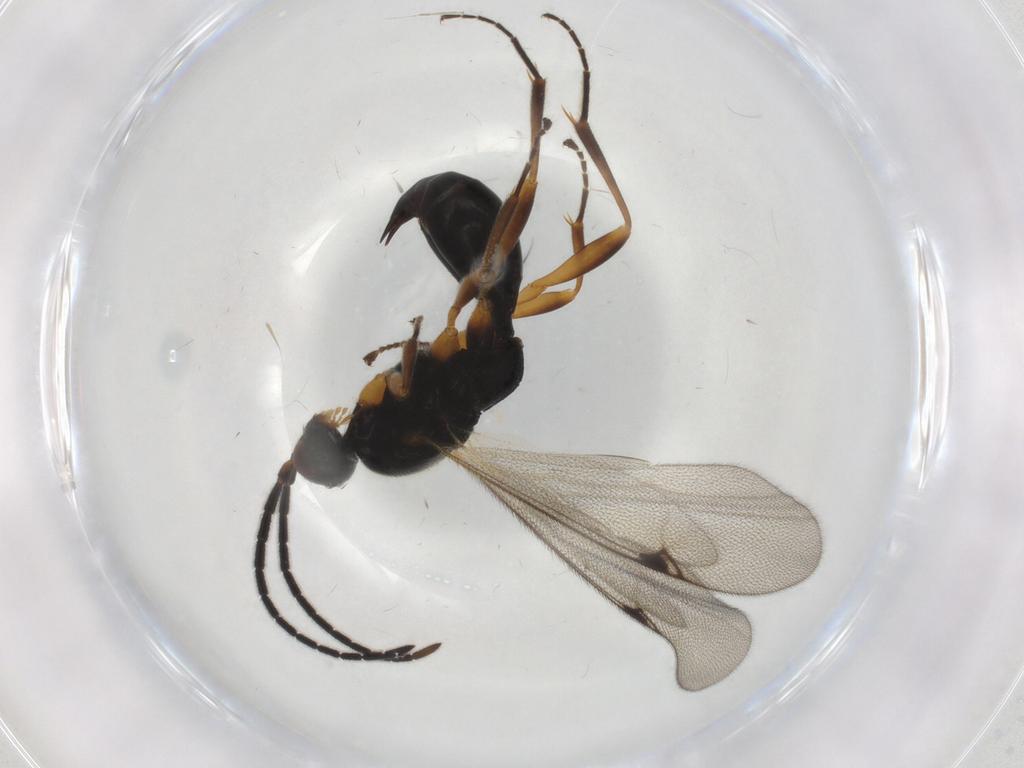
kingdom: Animalia
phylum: Arthropoda
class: Insecta
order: Hymenoptera
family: Proctotrupidae
